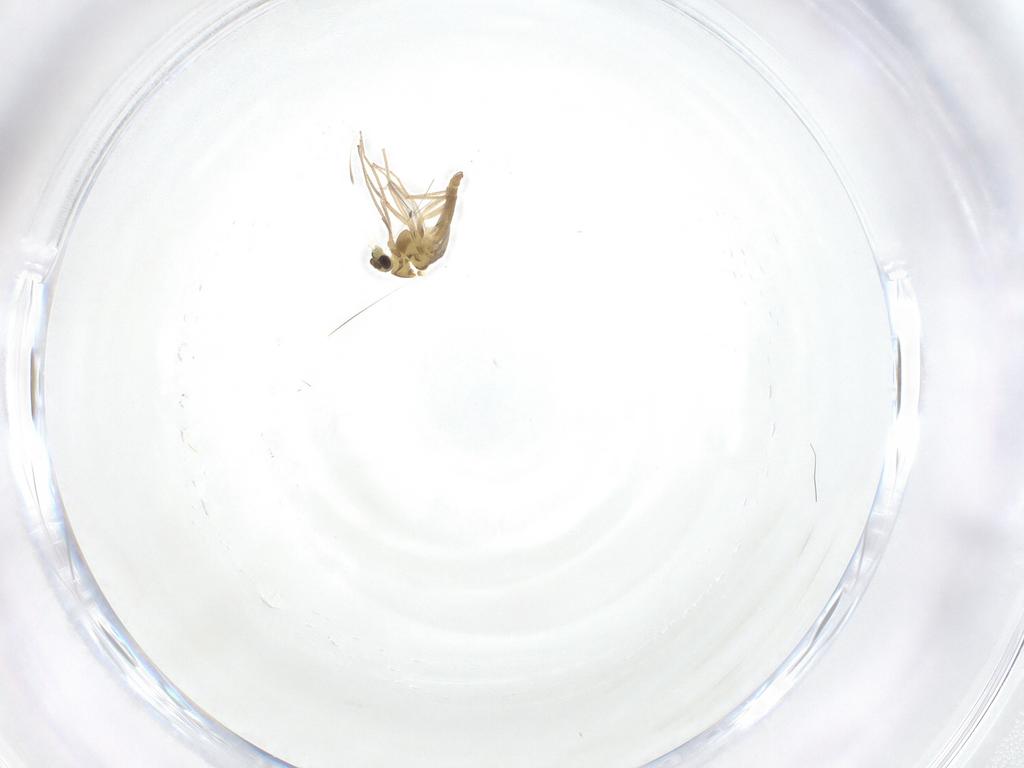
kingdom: Animalia
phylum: Arthropoda
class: Insecta
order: Diptera
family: Chironomidae
